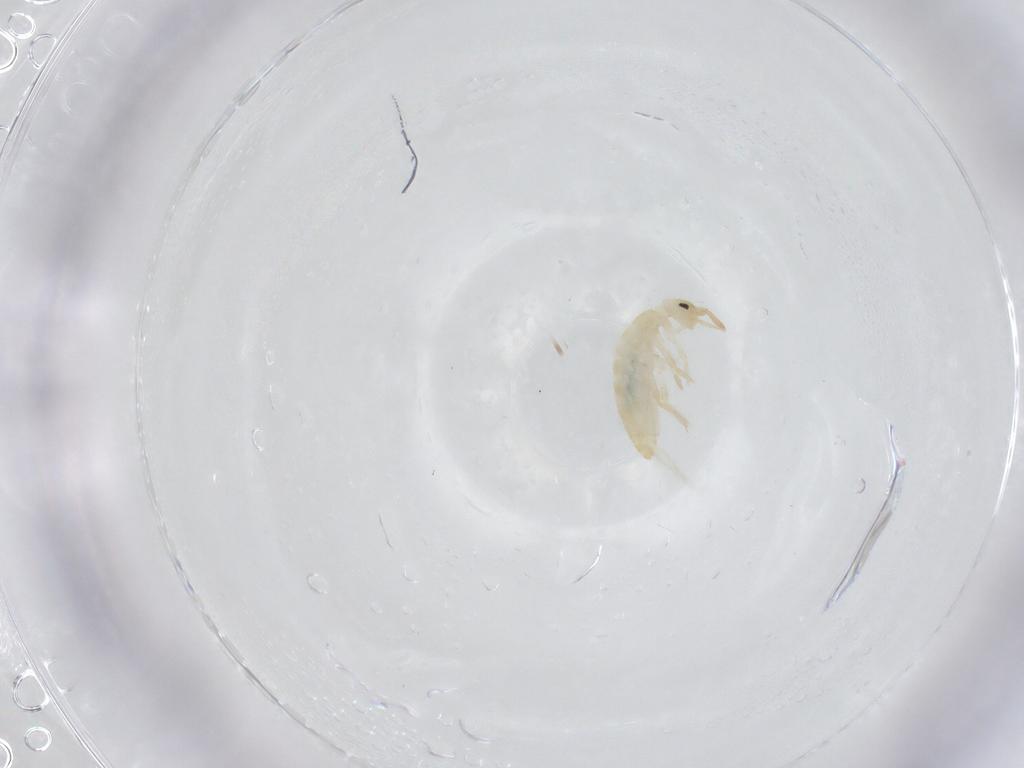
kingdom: Animalia
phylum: Arthropoda
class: Collembola
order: Entomobryomorpha
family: Entomobryidae
